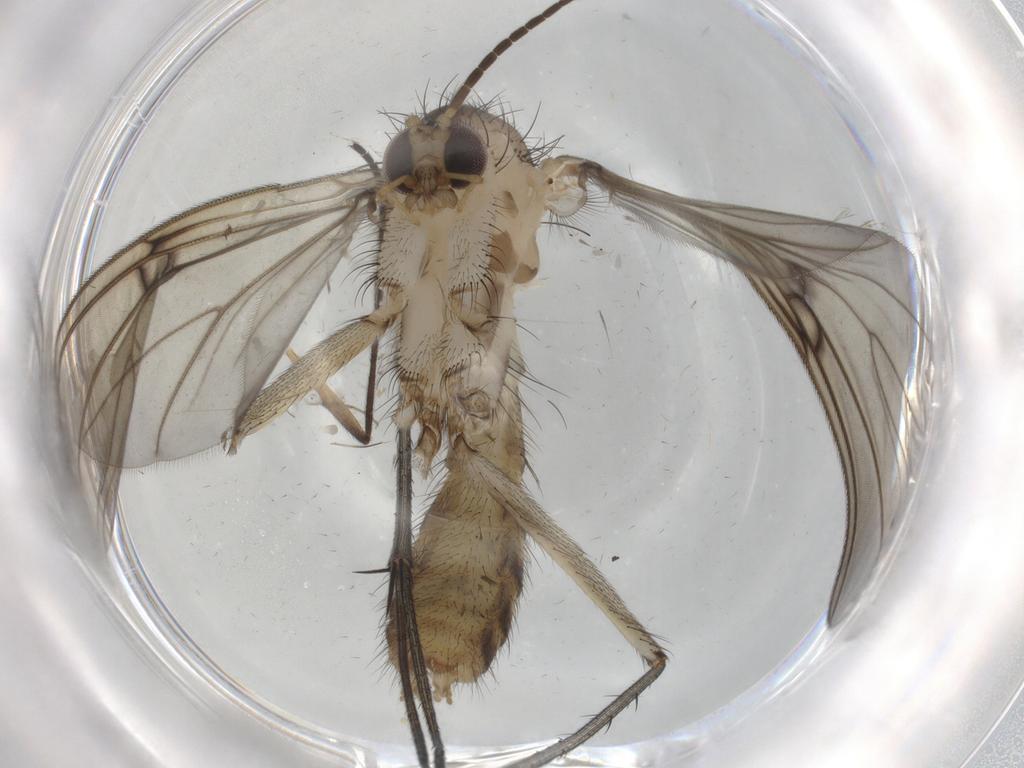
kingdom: Animalia
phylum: Arthropoda
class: Insecta
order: Diptera
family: Mycetophilidae
